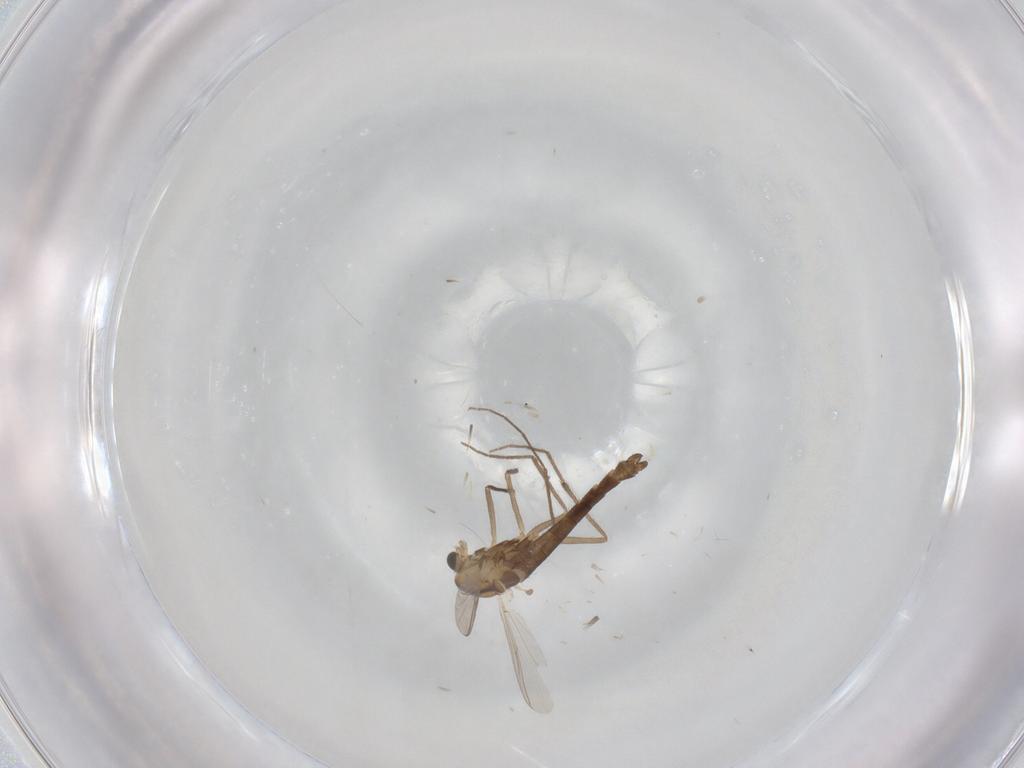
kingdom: Animalia
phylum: Arthropoda
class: Insecta
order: Diptera
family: Chironomidae
